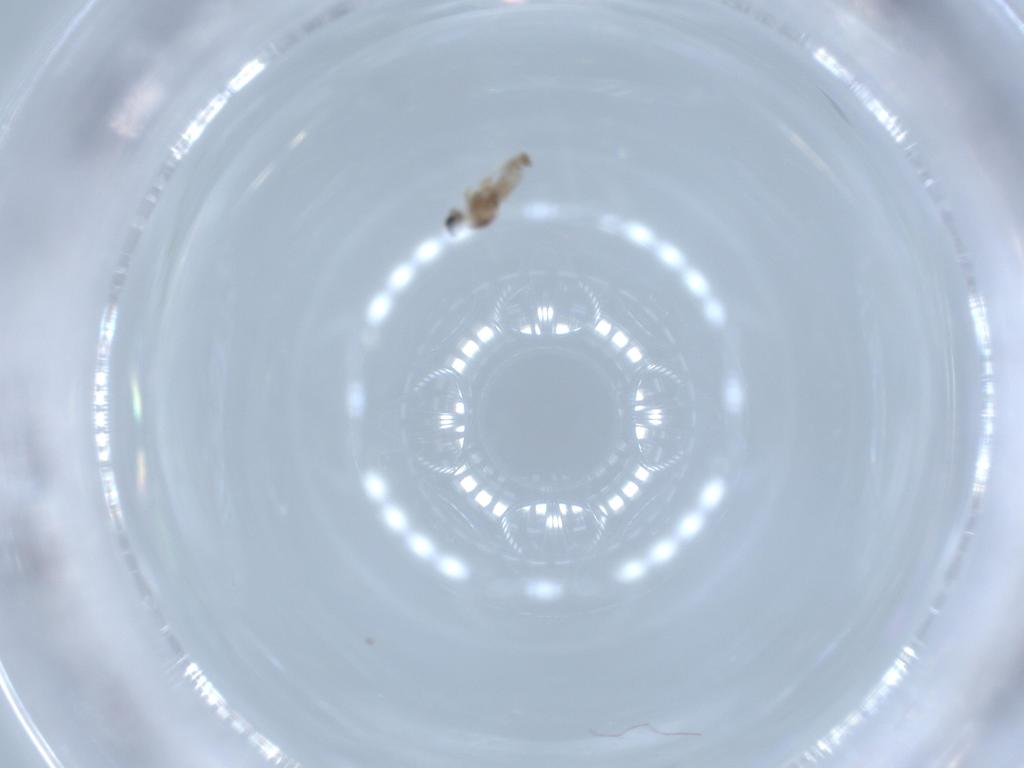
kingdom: Animalia
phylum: Arthropoda
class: Insecta
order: Diptera
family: Cecidomyiidae
